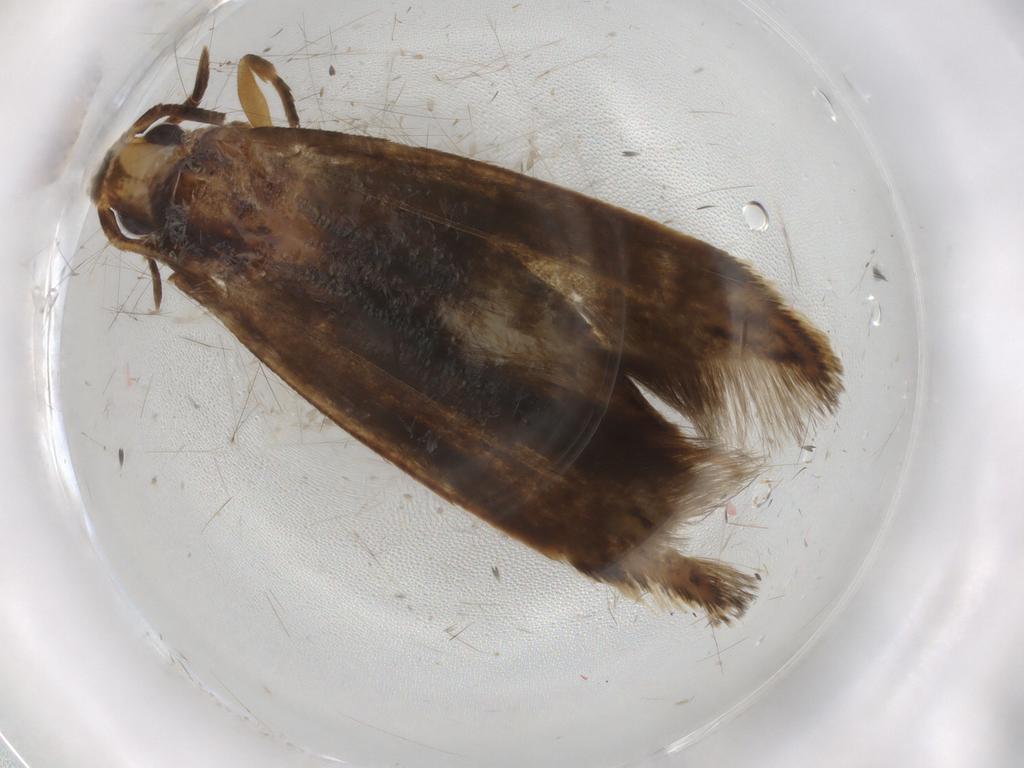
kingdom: Animalia
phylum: Arthropoda
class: Insecta
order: Lepidoptera
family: Tineidae
